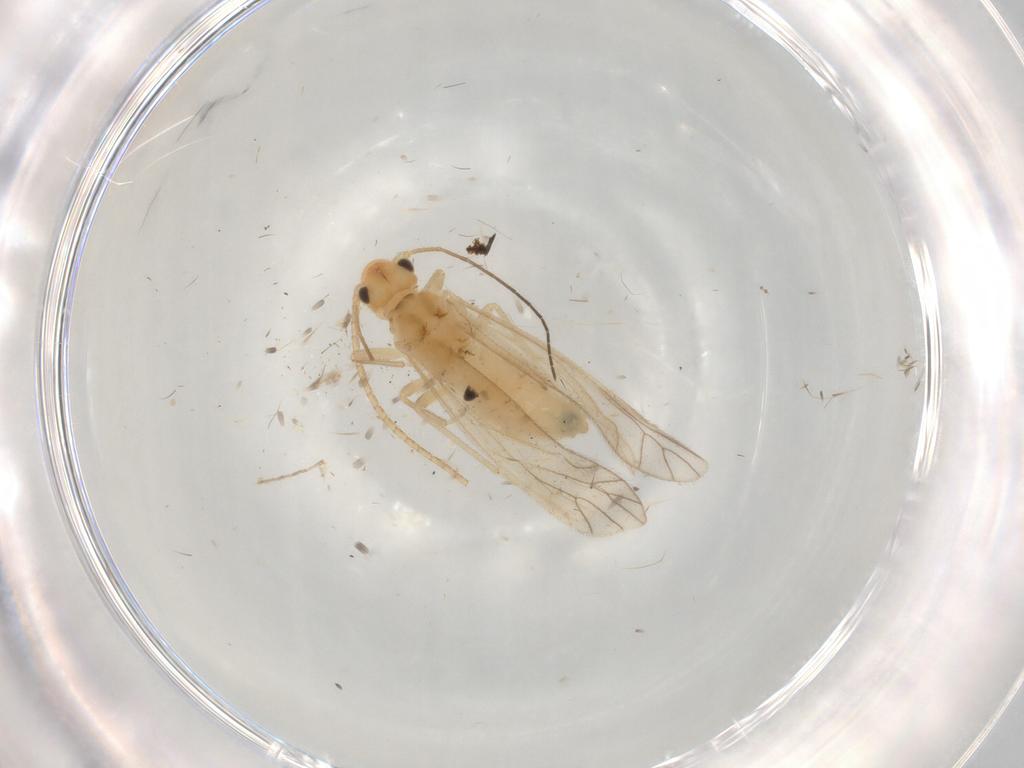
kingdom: Animalia
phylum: Arthropoda
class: Insecta
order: Psocodea
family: Caeciliusidae
